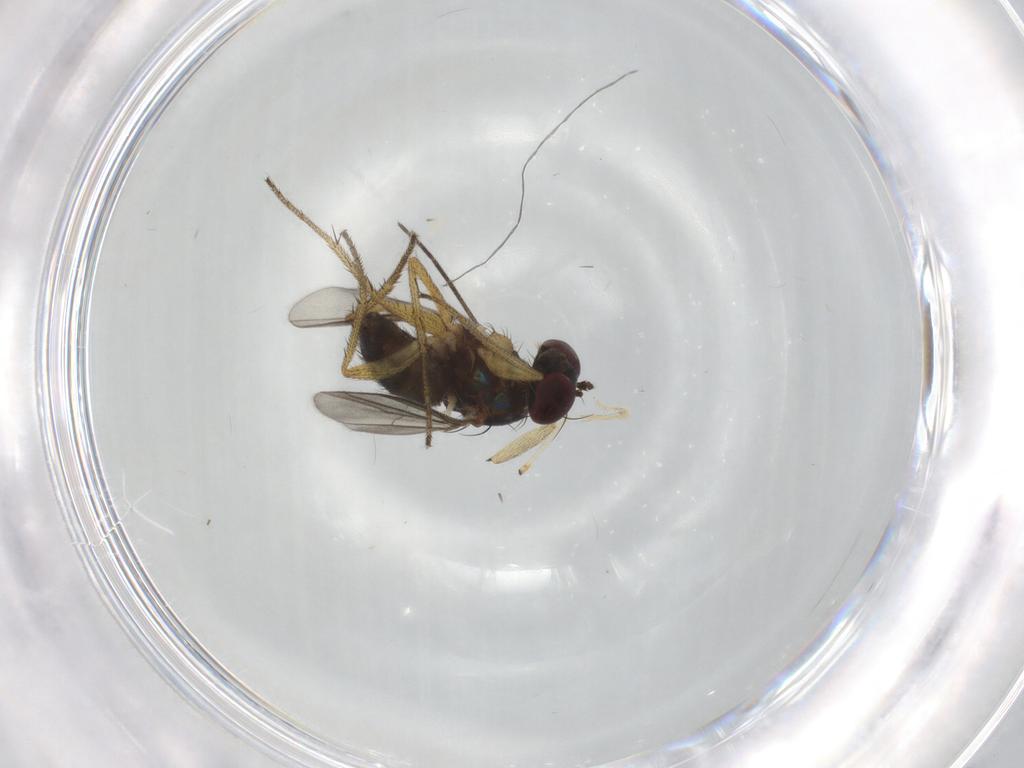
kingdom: Animalia
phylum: Arthropoda
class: Insecta
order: Diptera
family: Sciaridae
